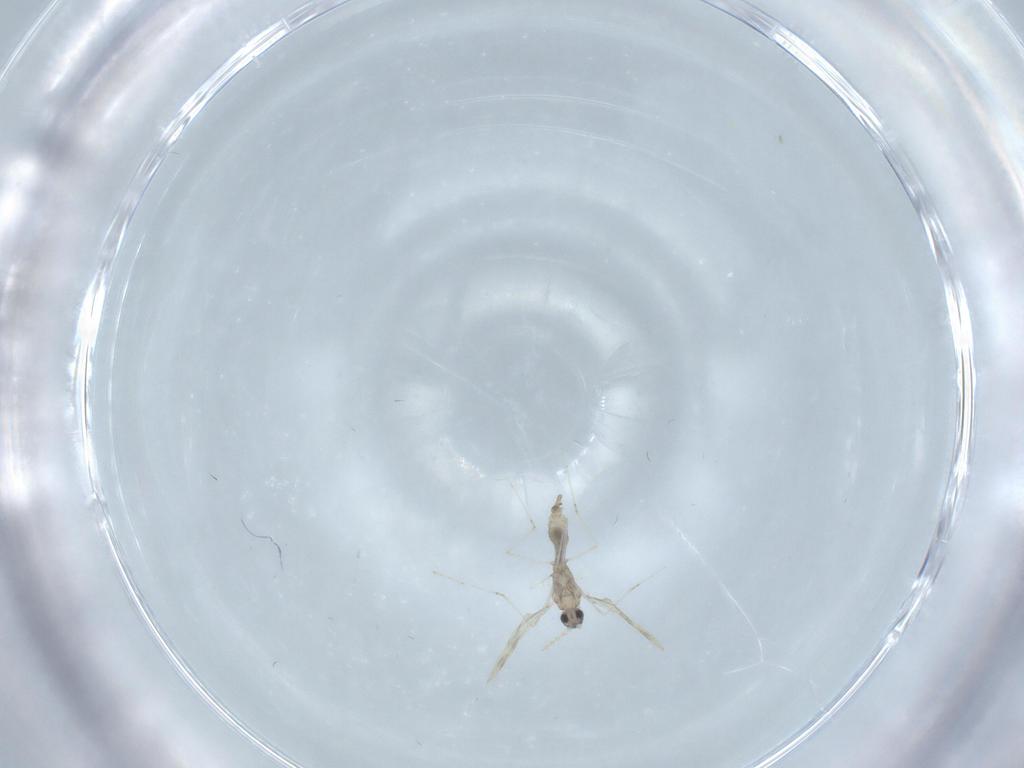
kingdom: Animalia
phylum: Arthropoda
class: Insecta
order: Diptera
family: Cecidomyiidae
